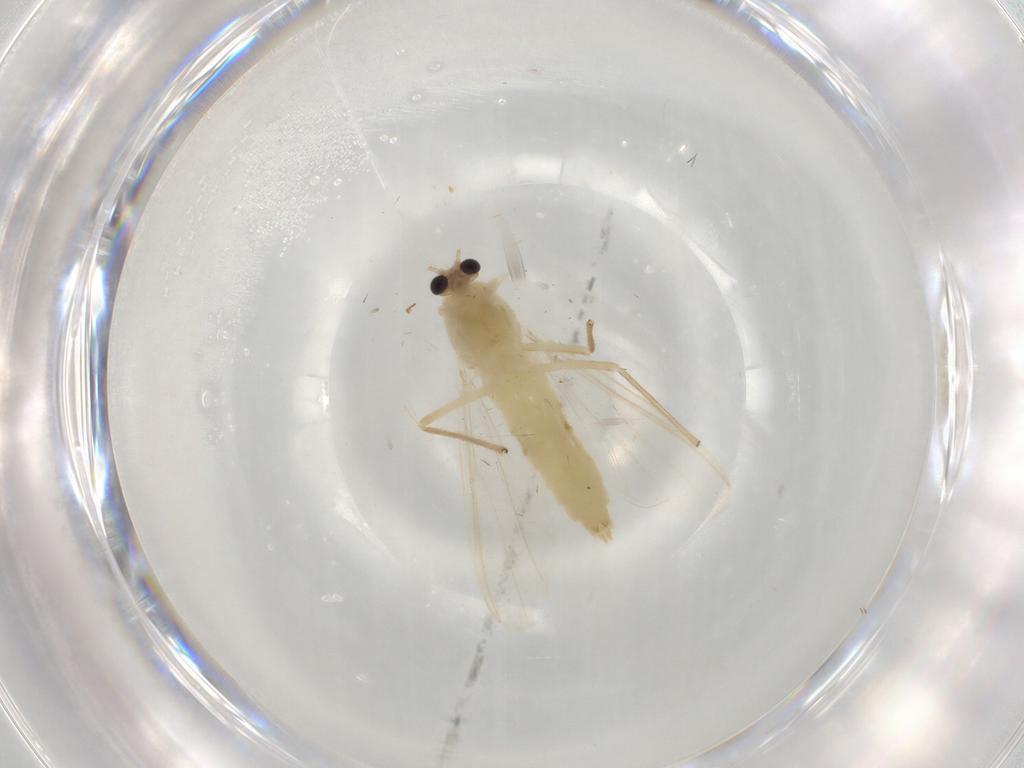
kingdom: Animalia
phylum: Arthropoda
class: Insecta
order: Diptera
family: Chironomidae
